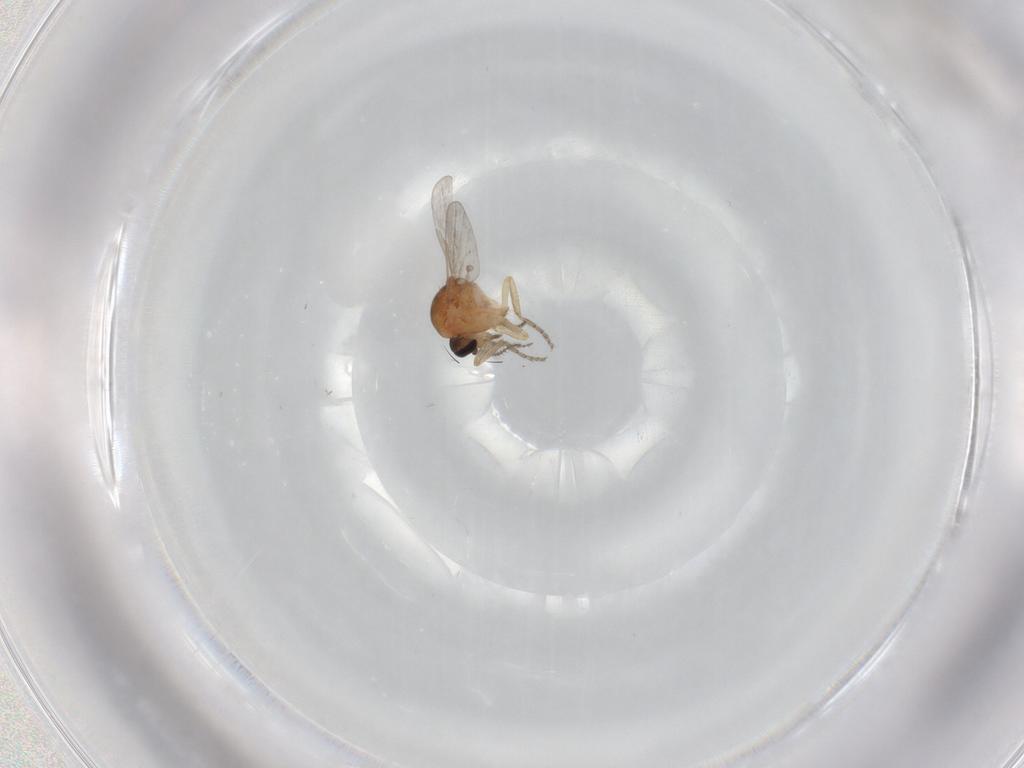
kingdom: Animalia
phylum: Arthropoda
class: Insecta
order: Diptera
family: Ceratopogonidae
